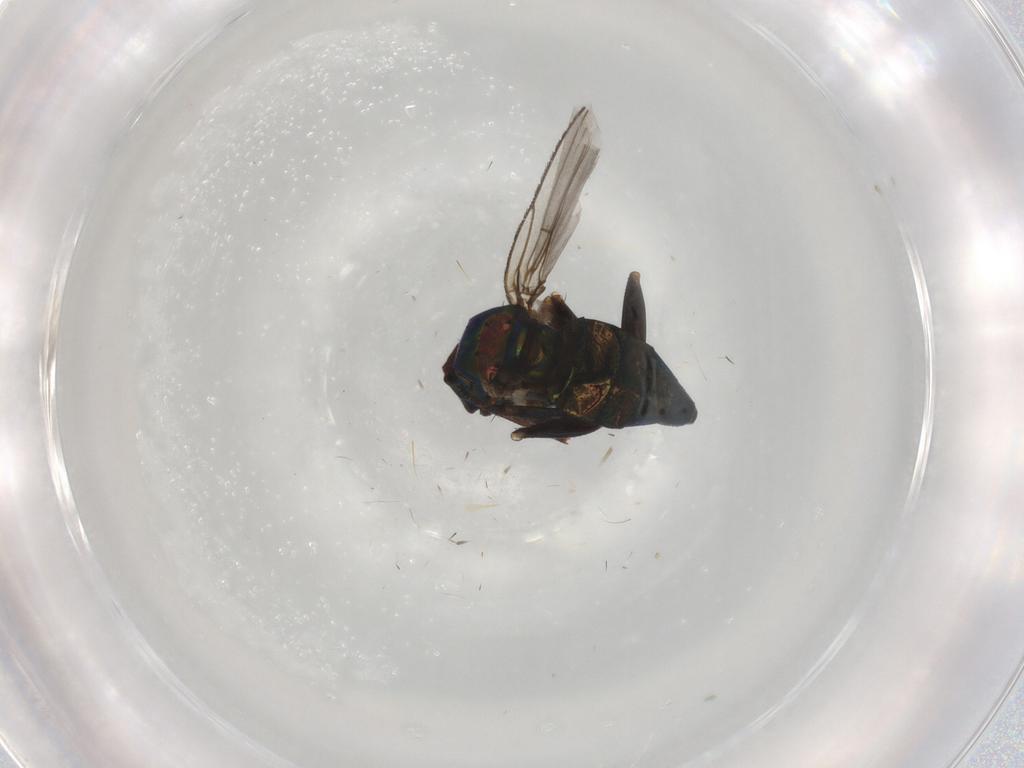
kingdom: Animalia
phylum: Arthropoda
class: Insecta
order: Diptera
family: Dolichopodidae
